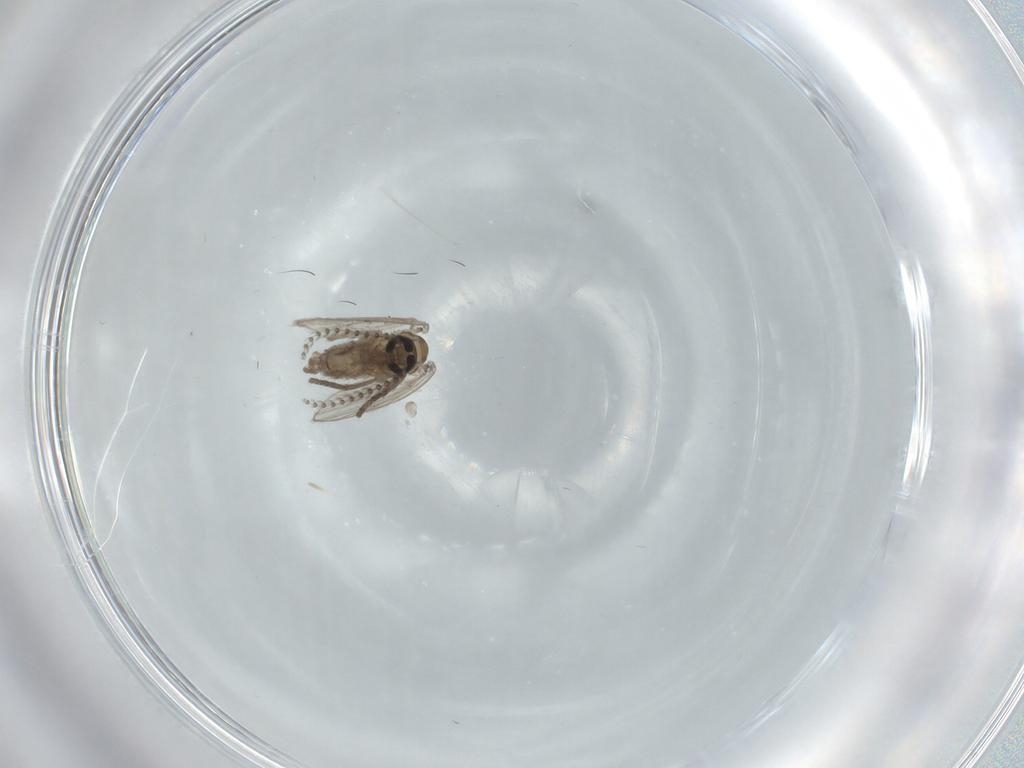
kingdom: Animalia
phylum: Arthropoda
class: Insecta
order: Diptera
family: Psychodidae
